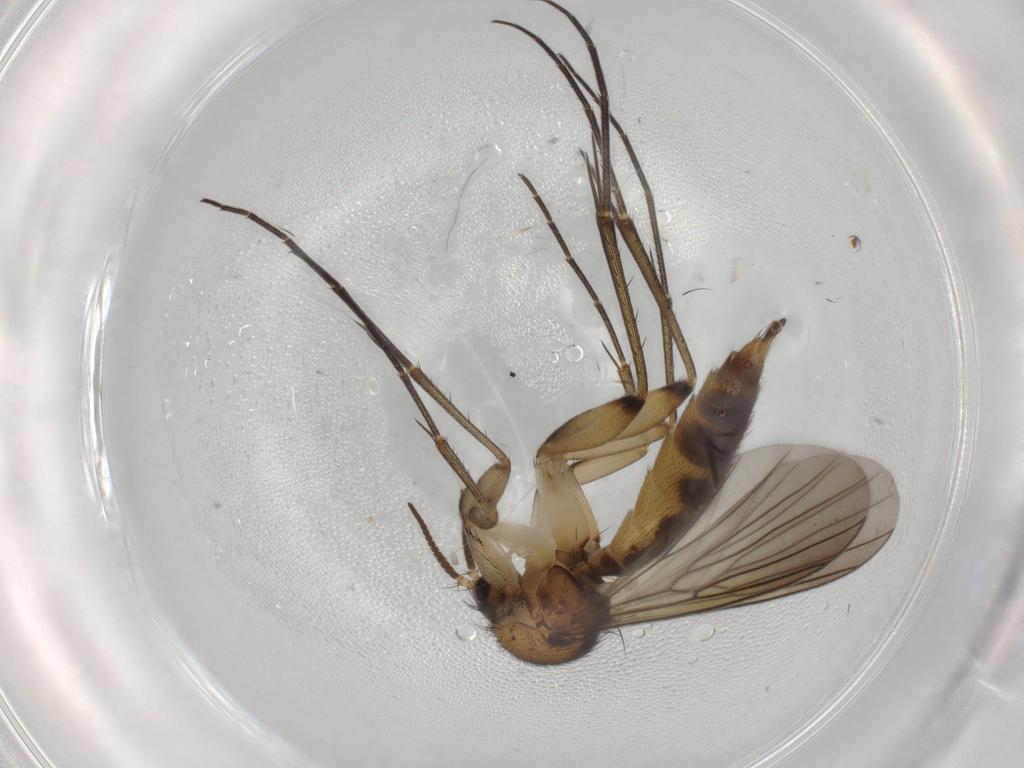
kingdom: Animalia
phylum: Arthropoda
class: Insecta
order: Diptera
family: Mycetophilidae
